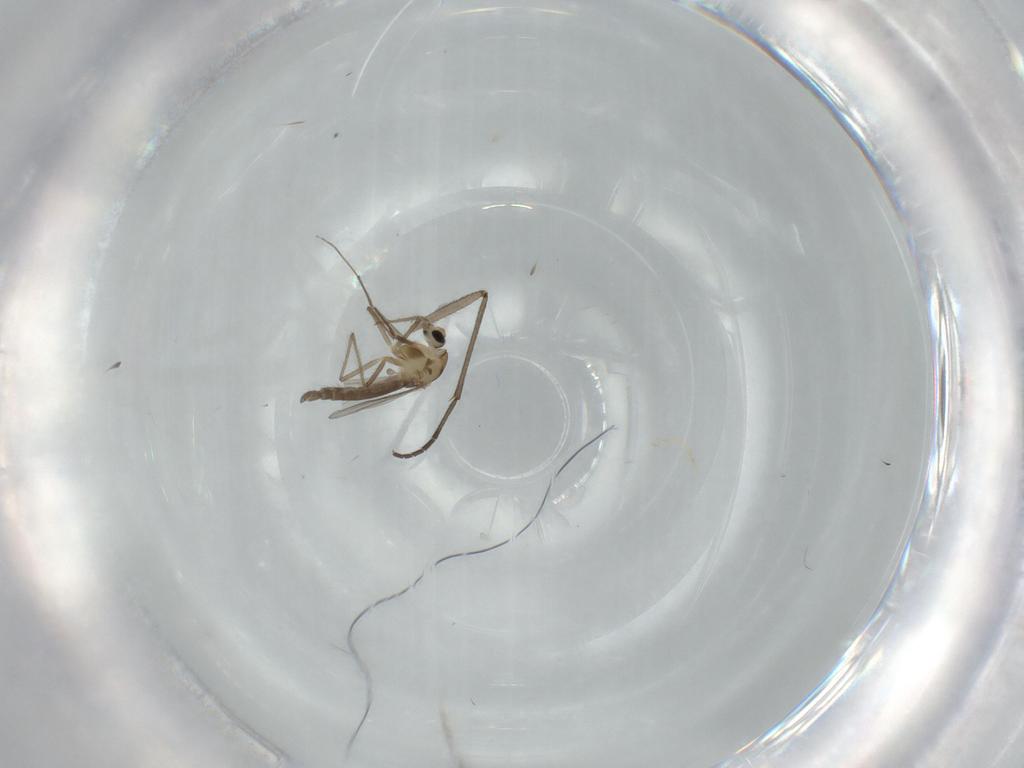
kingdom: Animalia
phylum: Arthropoda
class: Insecta
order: Diptera
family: Chironomidae
